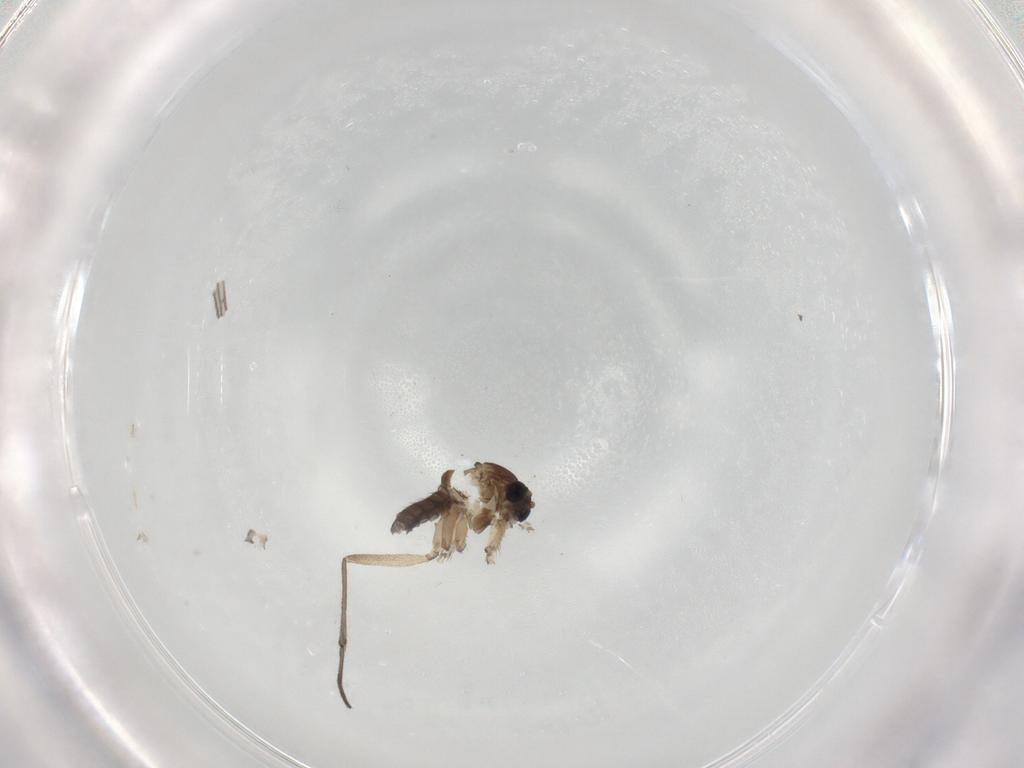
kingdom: Animalia
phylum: Arthropoda
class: Insecta
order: Diptera
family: Sciaridae
